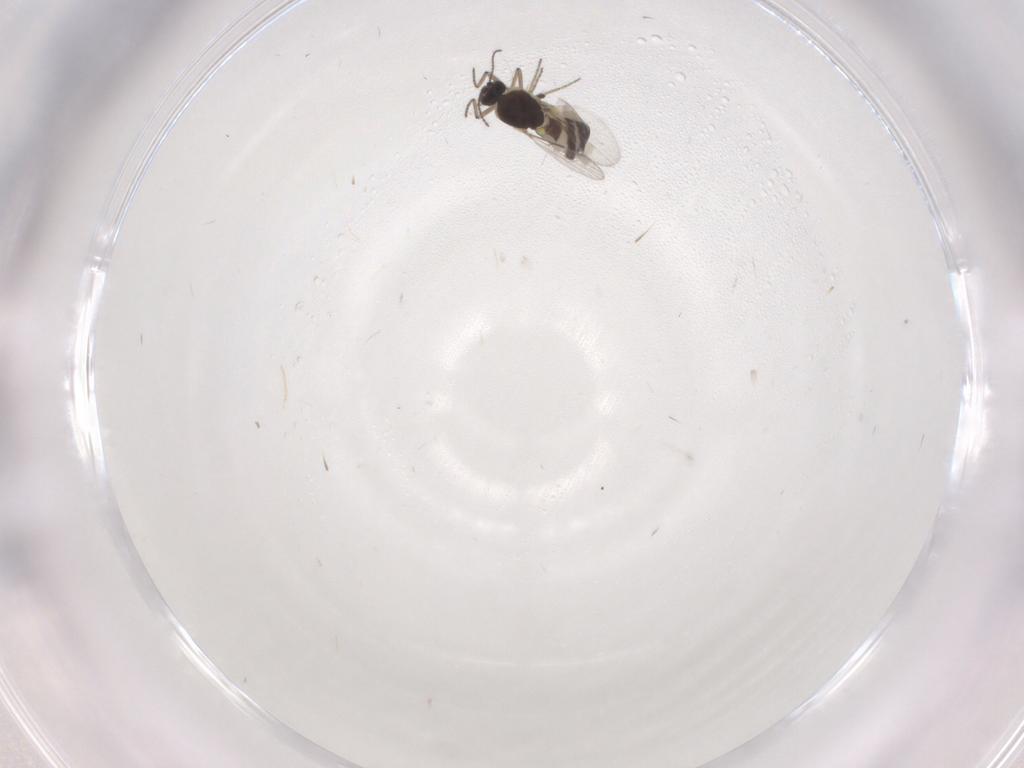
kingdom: Animalia
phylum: Arthropoda
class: Insecta
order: Diptera
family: Ceratopogonidae
